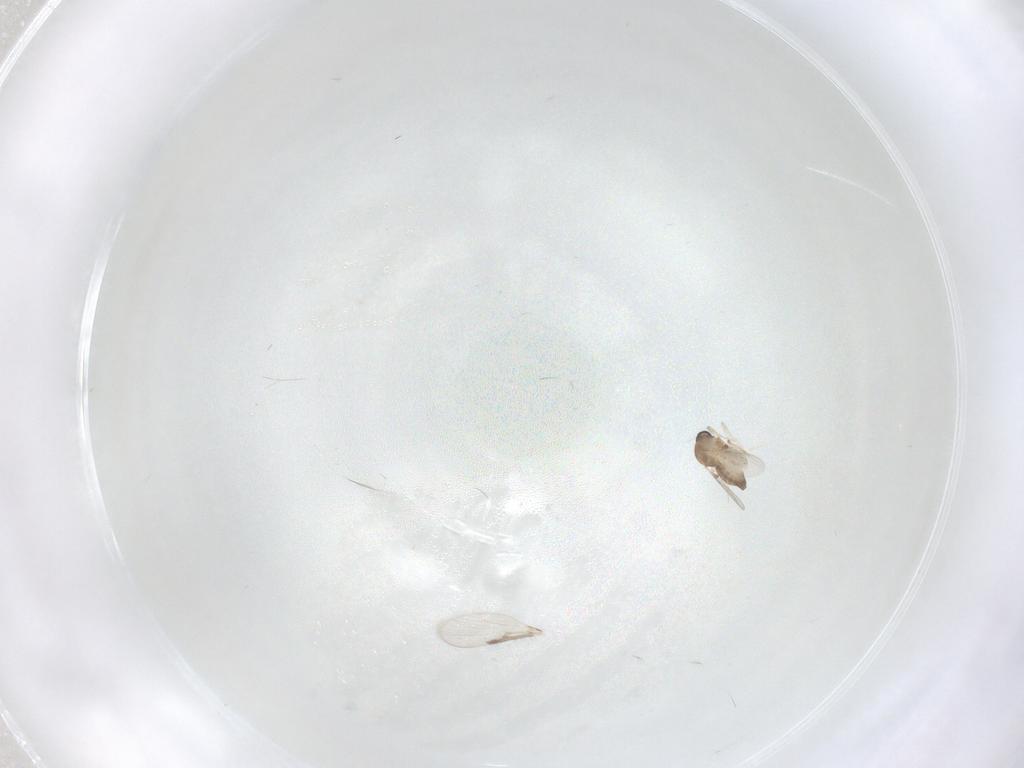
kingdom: Animalia
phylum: Arthropoda
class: Insecta
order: Diptera
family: Ceratopogonidae
